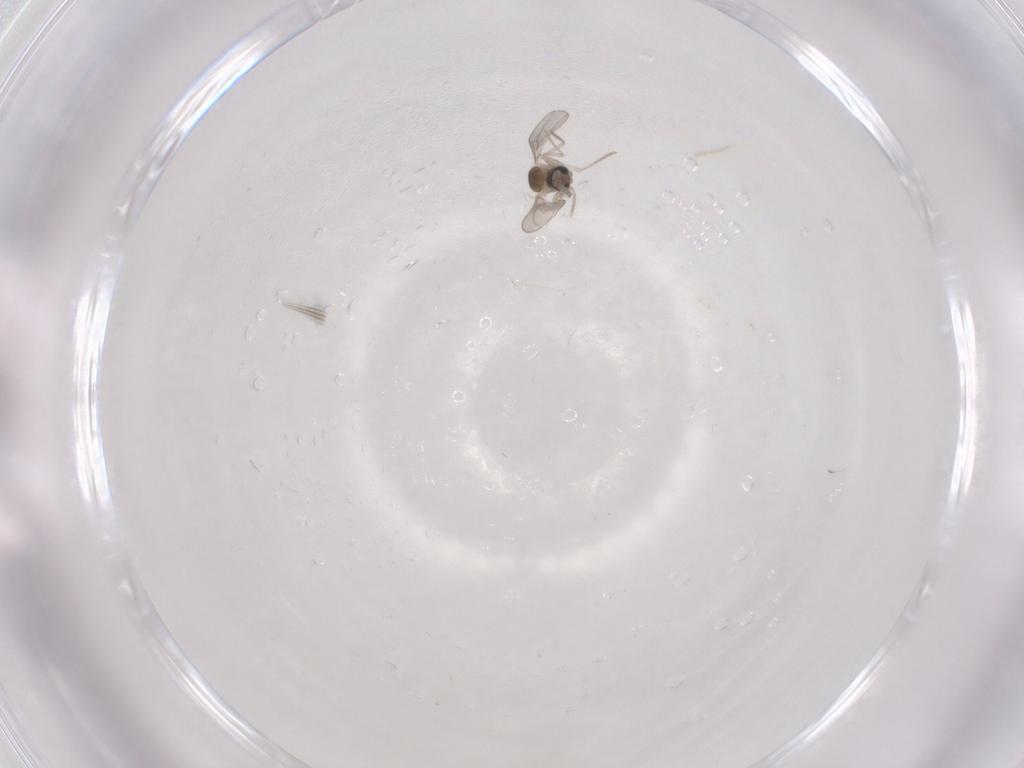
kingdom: Animalia
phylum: Arthropoda
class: Insecta
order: Diptera
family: Cecidomyiidae
